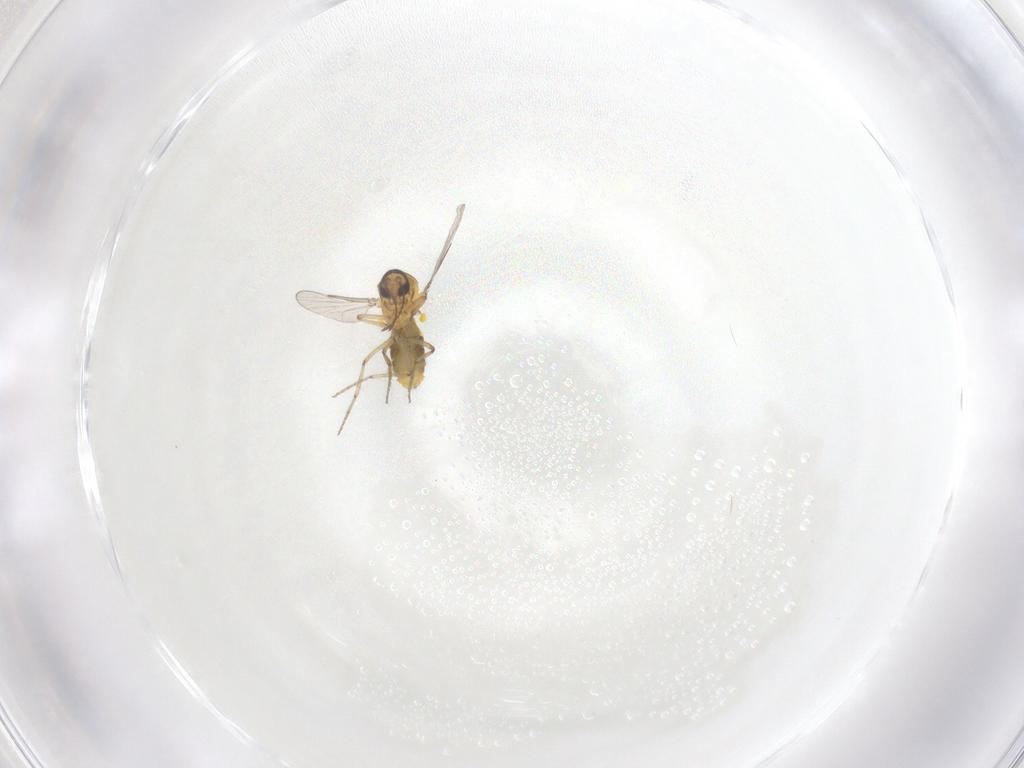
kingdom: Animalia
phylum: Arthropoda
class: Insecta
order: Diptera
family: Ceratopogonidae
